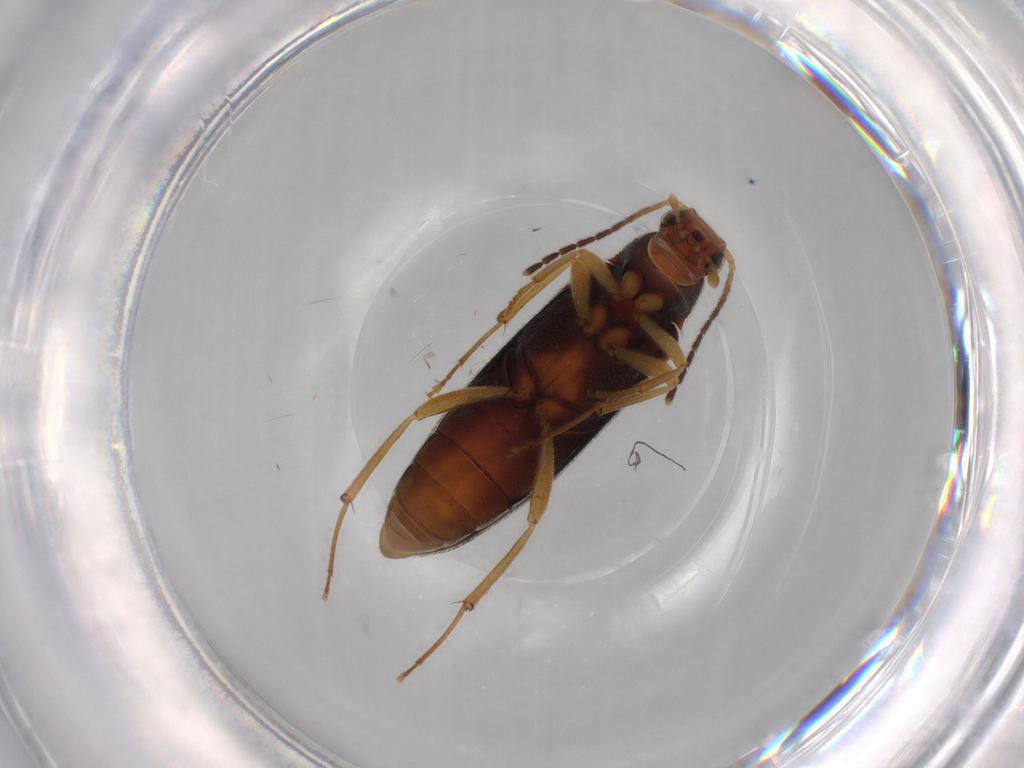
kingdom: Animalia
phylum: Arthropoda
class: Insecta
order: Coleoptera
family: Melandryidae
